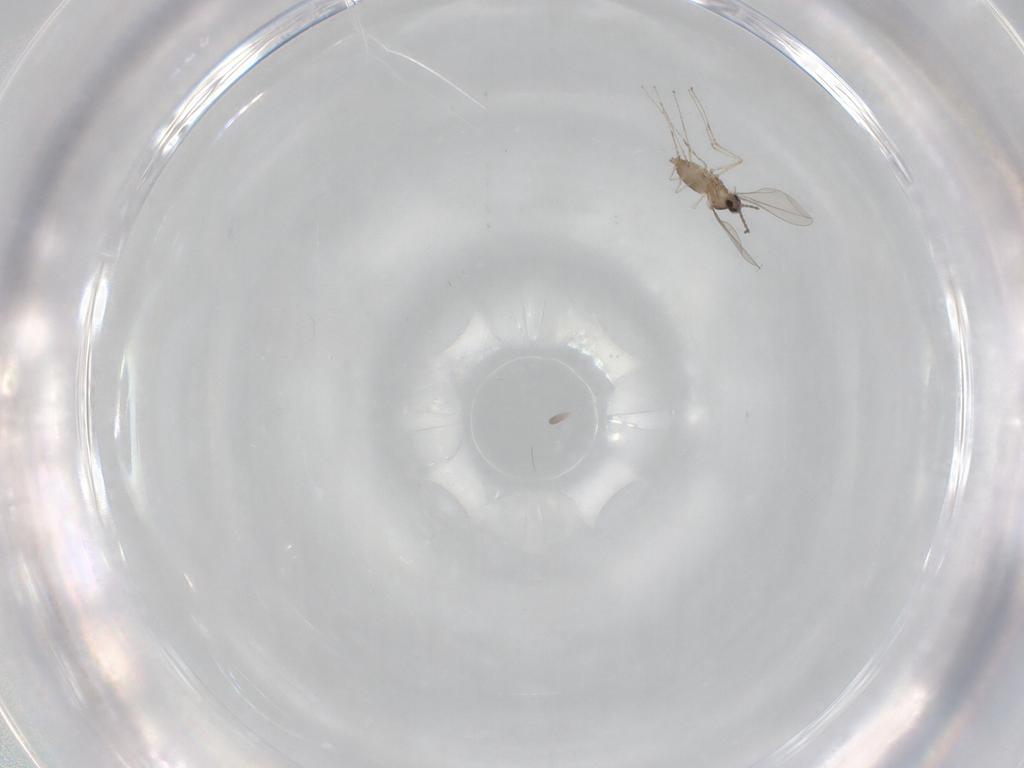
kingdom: Animalia
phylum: Arthropoda
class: Insecta
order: Diptera
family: Cecidomyiidae
